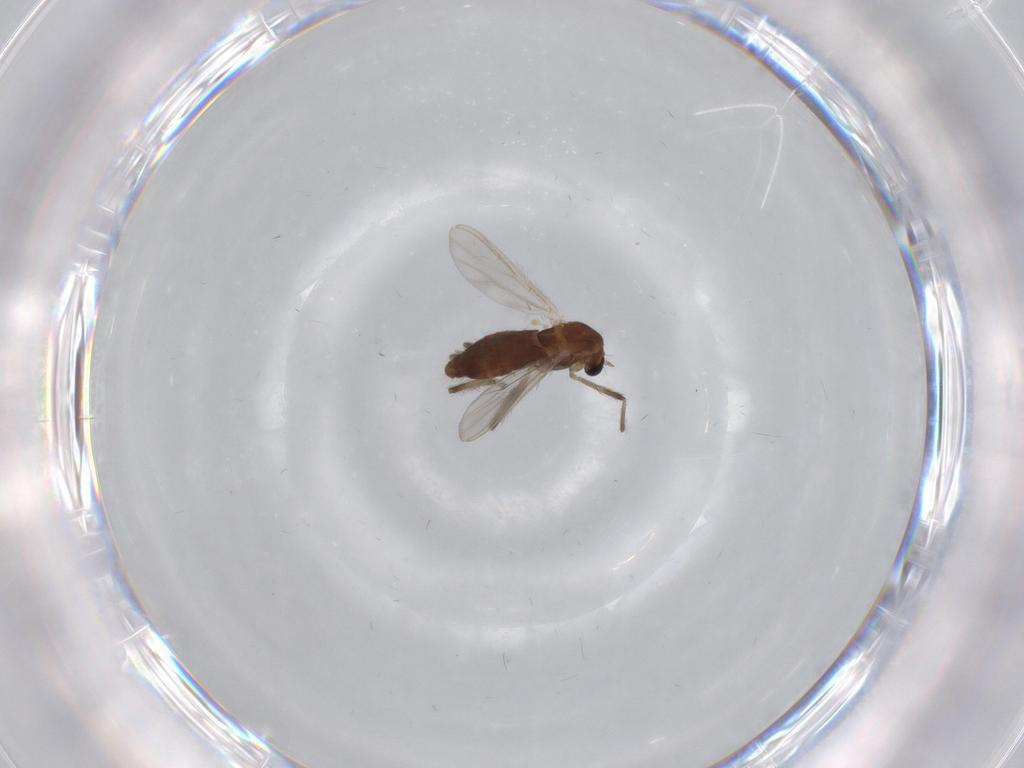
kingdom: Animalia
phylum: Arthropoda
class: Insecta
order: Diptera
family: Chironomidae
